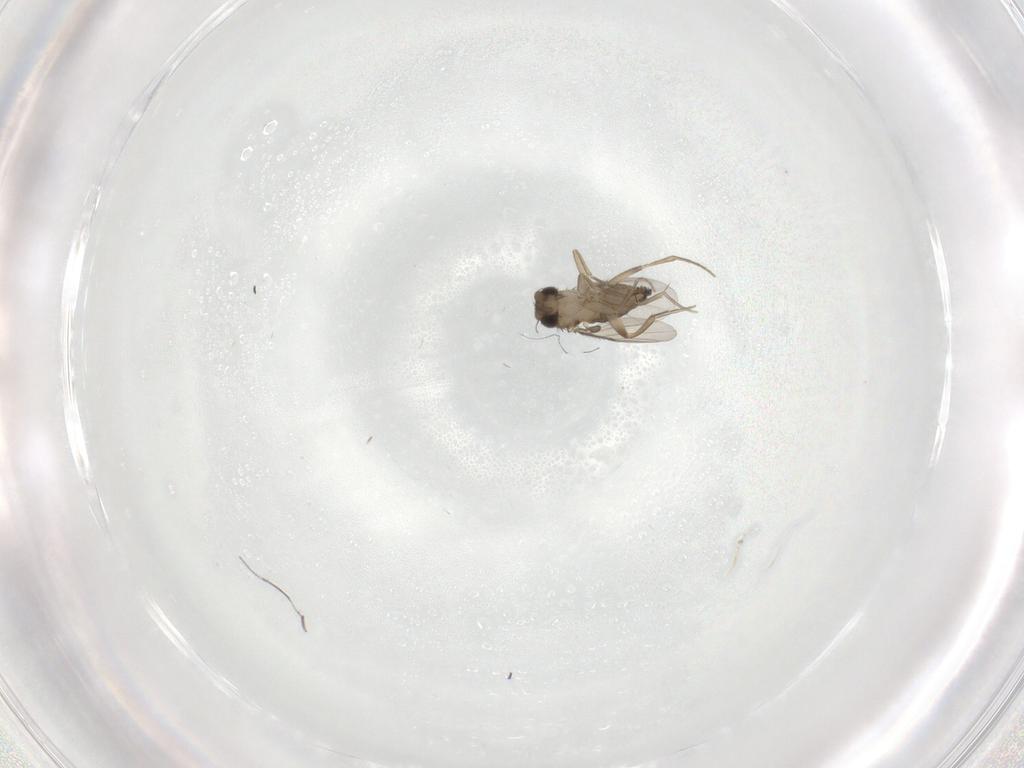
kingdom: Animalia
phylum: Arthropoda
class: Insecta
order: Diptera
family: Phoridae
